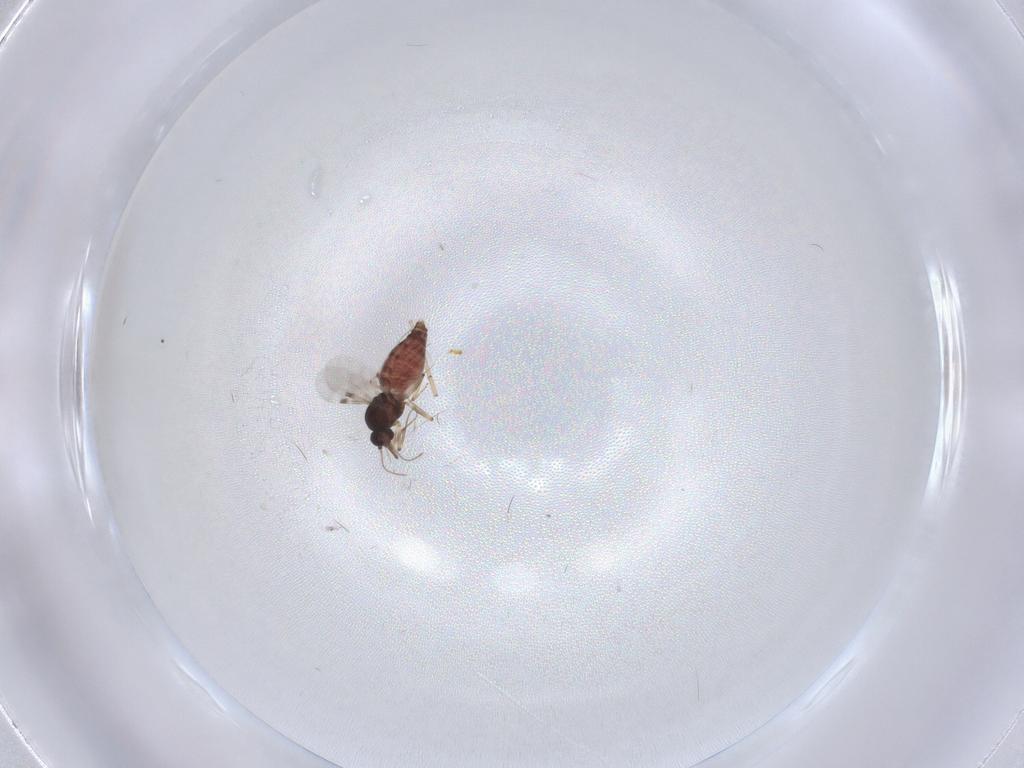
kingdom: Animalia
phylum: Arthropoda
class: Insecta
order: Diptera
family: Ceratopogonidae
